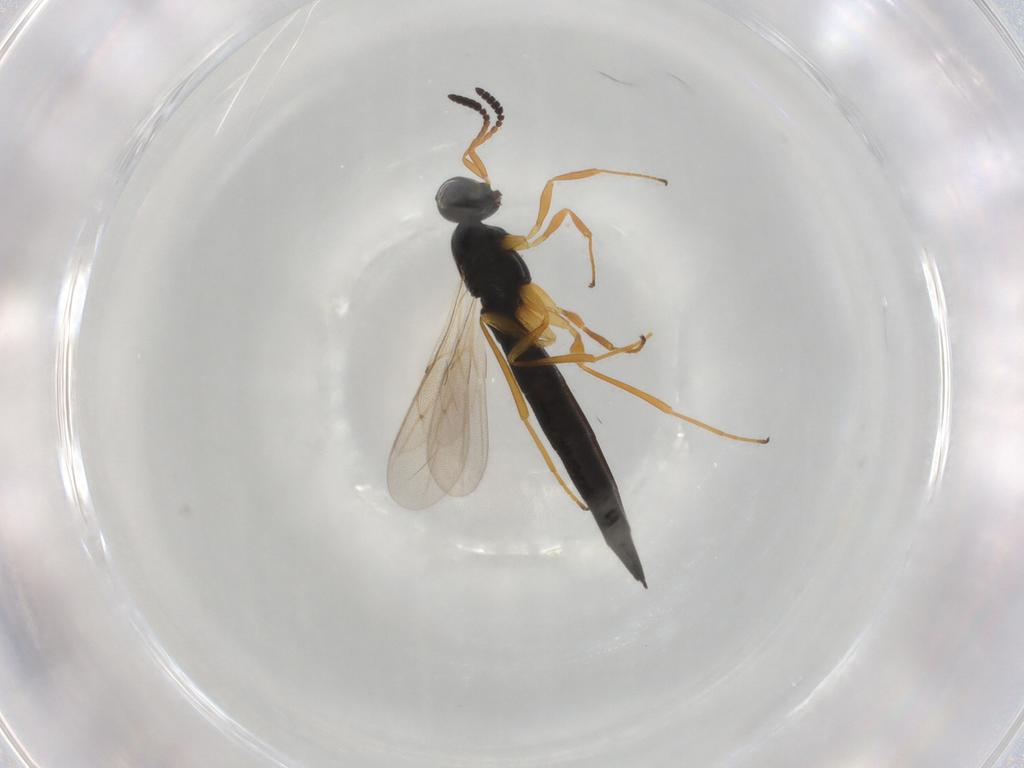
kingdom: Animalia
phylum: Arthropoda
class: Insecta
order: Hymenoptera
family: Scelionidae
